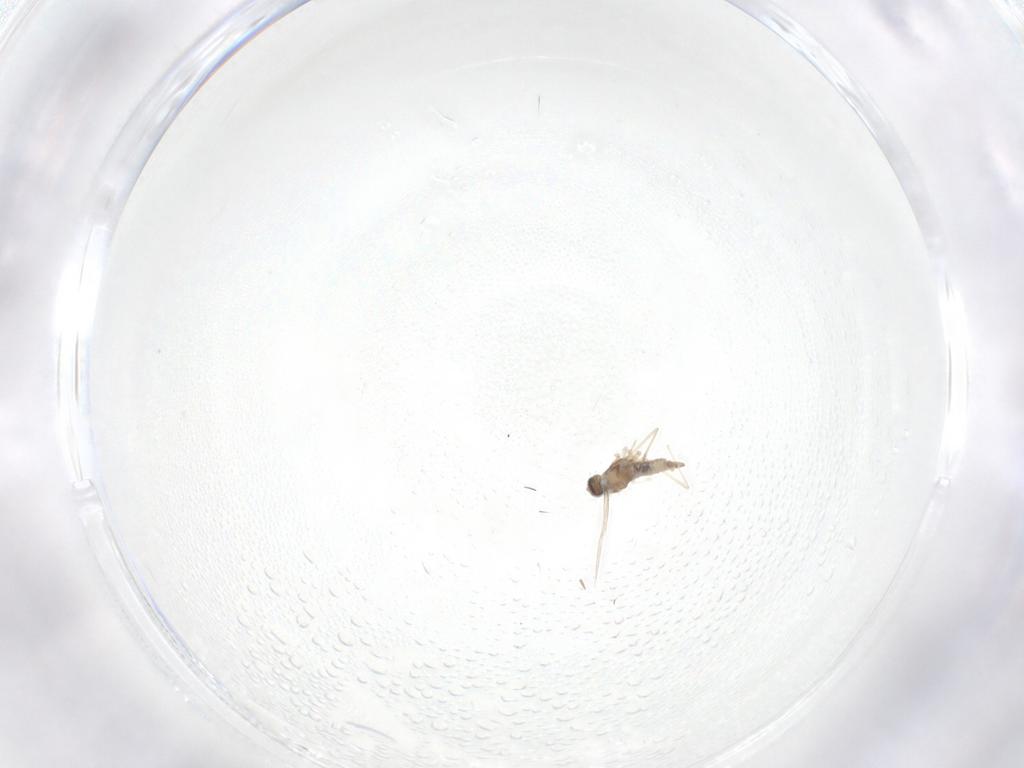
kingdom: Animalia
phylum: Arthropoda
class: Insecta
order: Diptera
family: Cecidomyiidae
